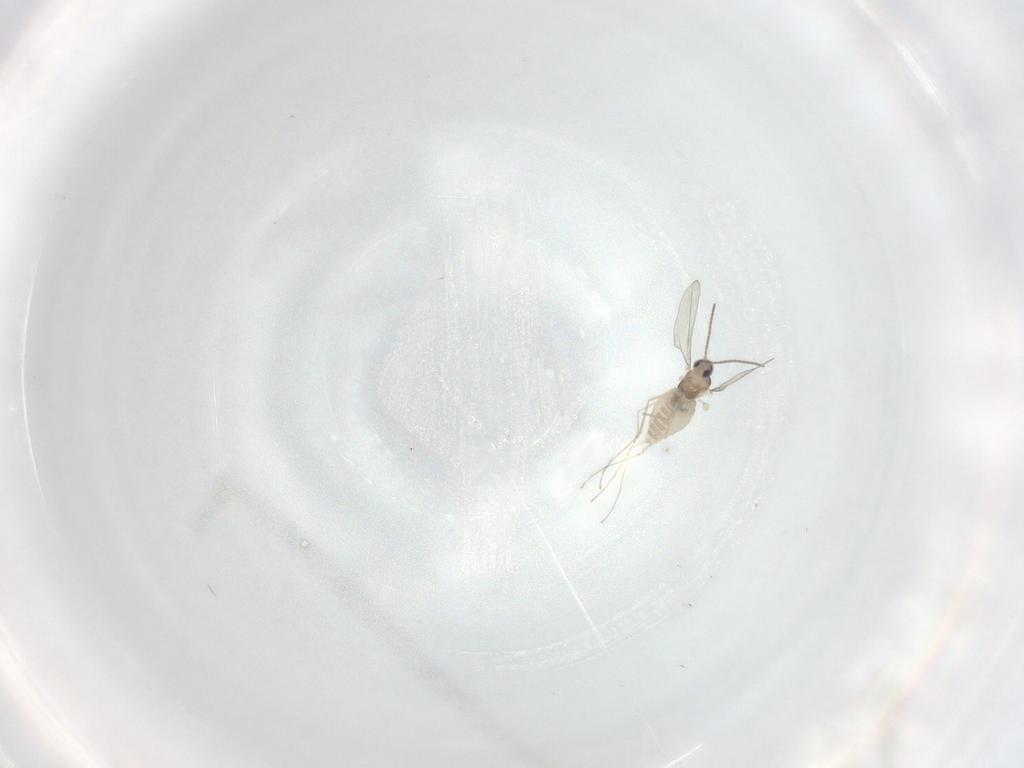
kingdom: Animalia
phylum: Arthropoda
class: Insecta
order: Diptera
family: Cecidomyiidae
